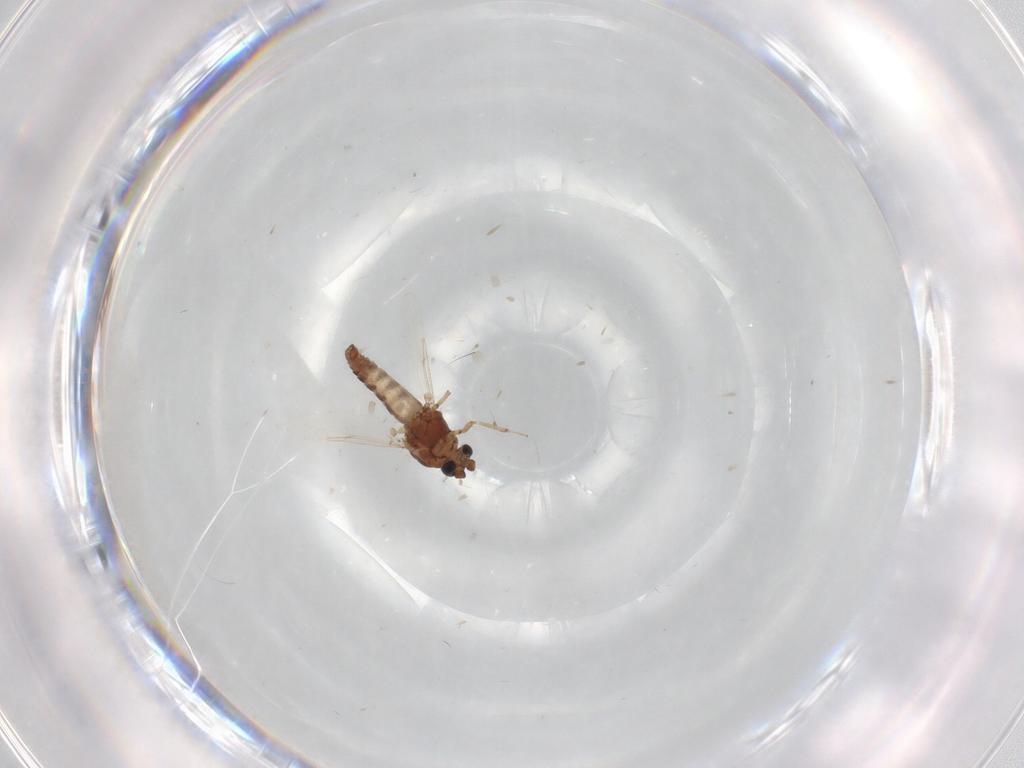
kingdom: Animalia
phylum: Arthropoda
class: Insecta
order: Diptera
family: Chironomidae
